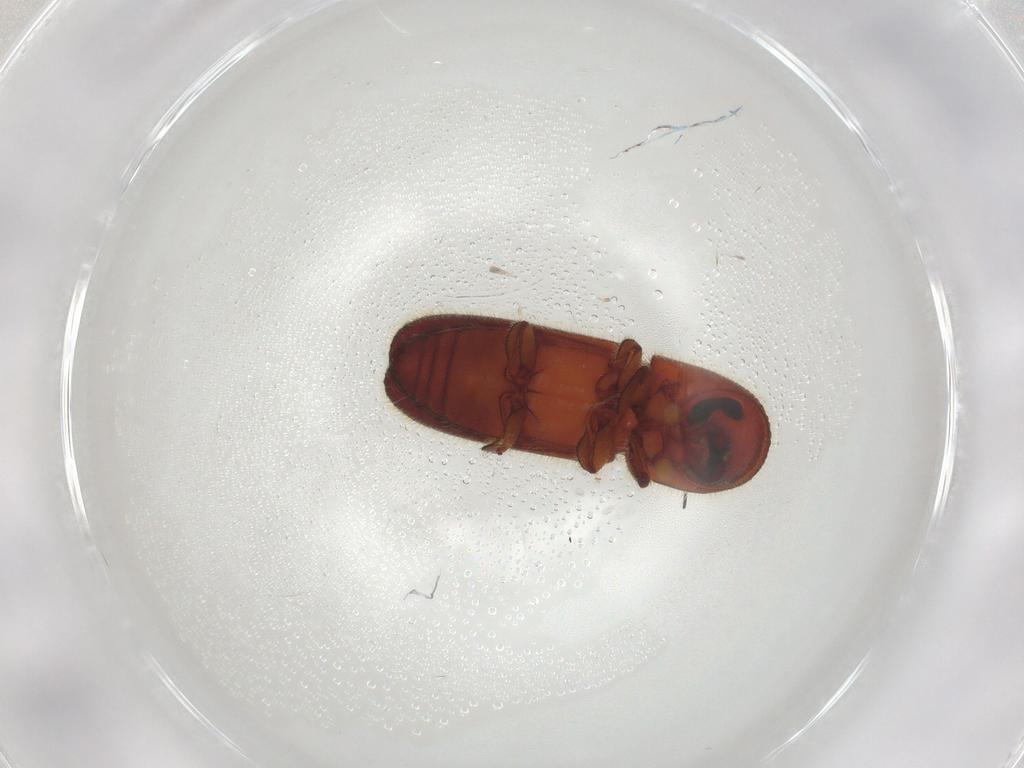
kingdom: Animalia
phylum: Arthropoda
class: Insecta
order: Coleoptera
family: Curculionidae
